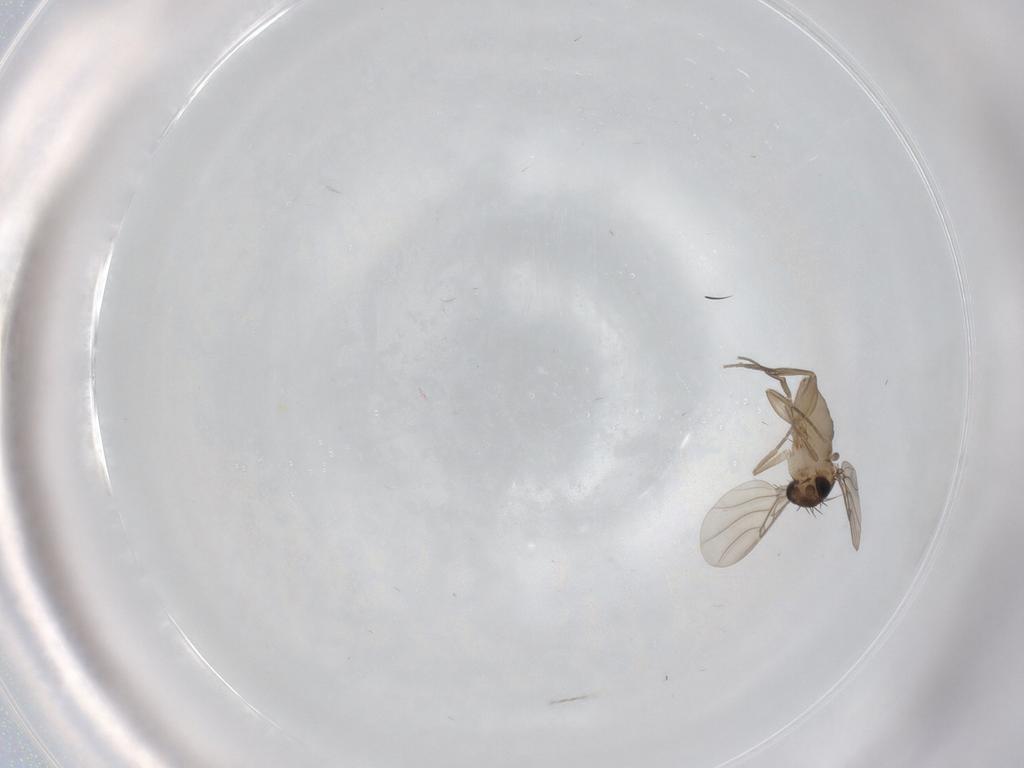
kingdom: Animalia
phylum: Arthropoda
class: Insecta
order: Diptera
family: Phoridae
